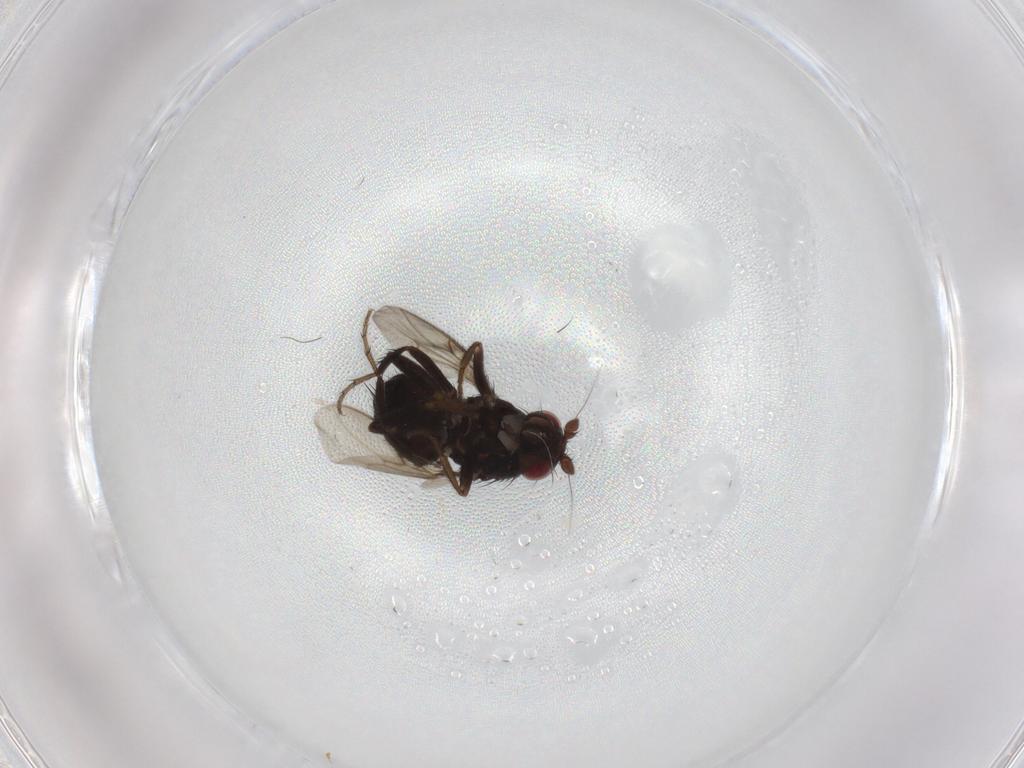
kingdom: Animalia
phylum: Arthropoda
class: Insecta
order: Diptera
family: Sphaeroceridae
